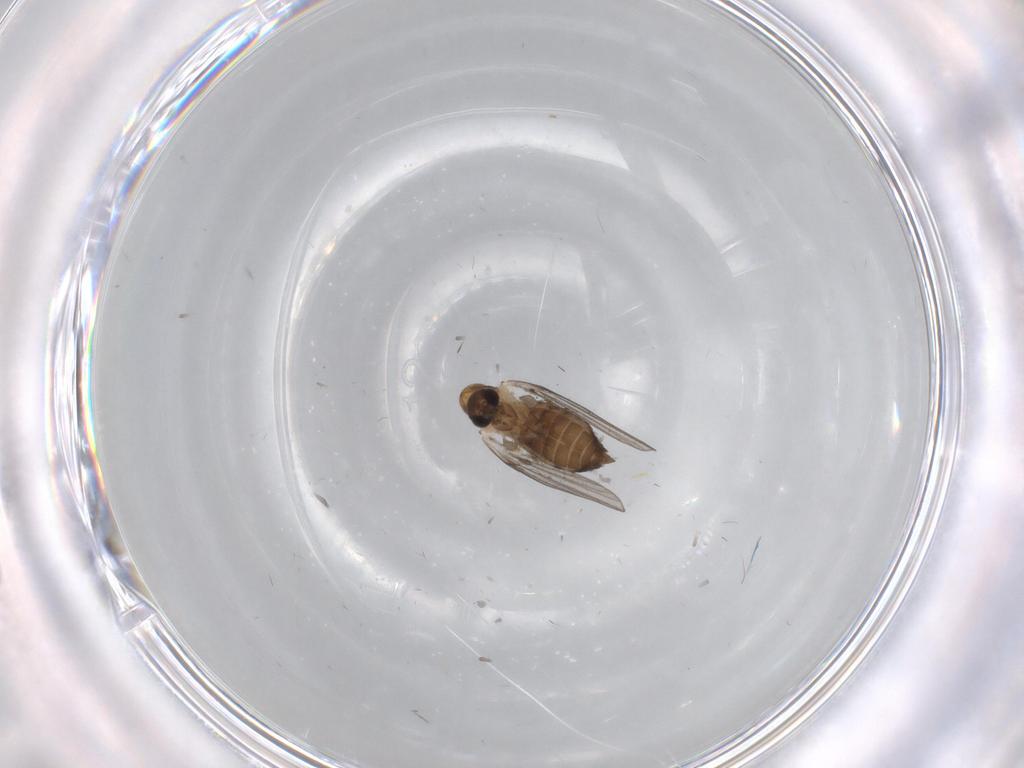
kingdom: Animalia
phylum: Arthropoda
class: Insecta
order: Diptera
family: Psychodidae
